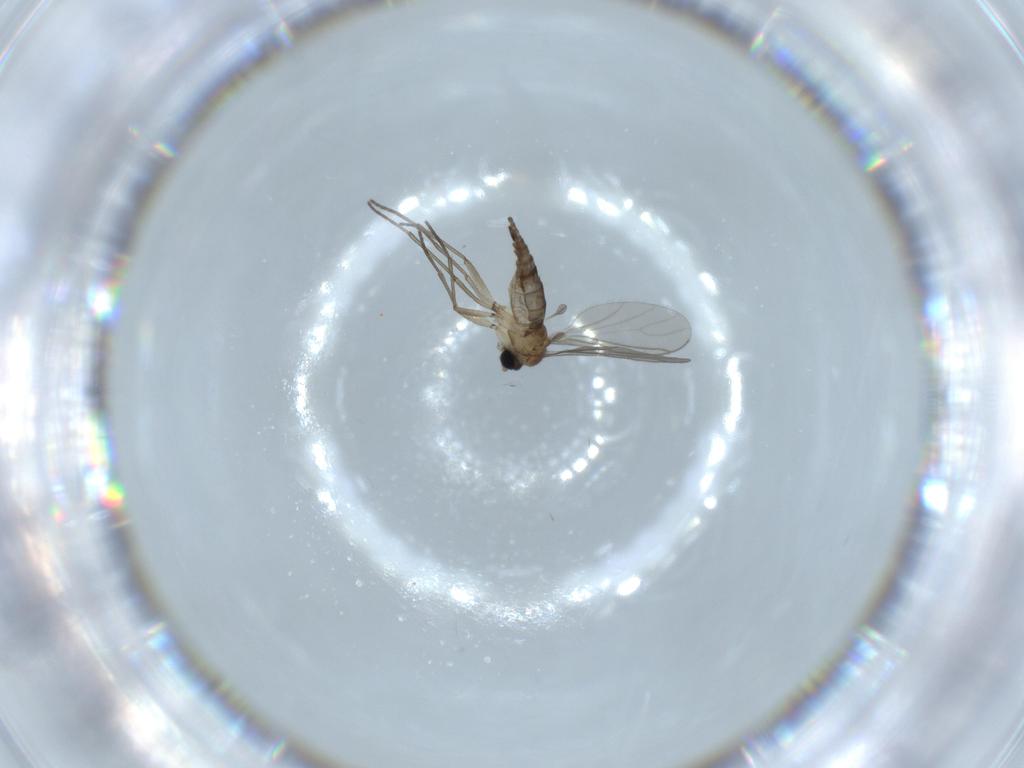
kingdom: Animalia
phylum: Arthropoda
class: Insecta
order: Diptera
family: Sciaridae
